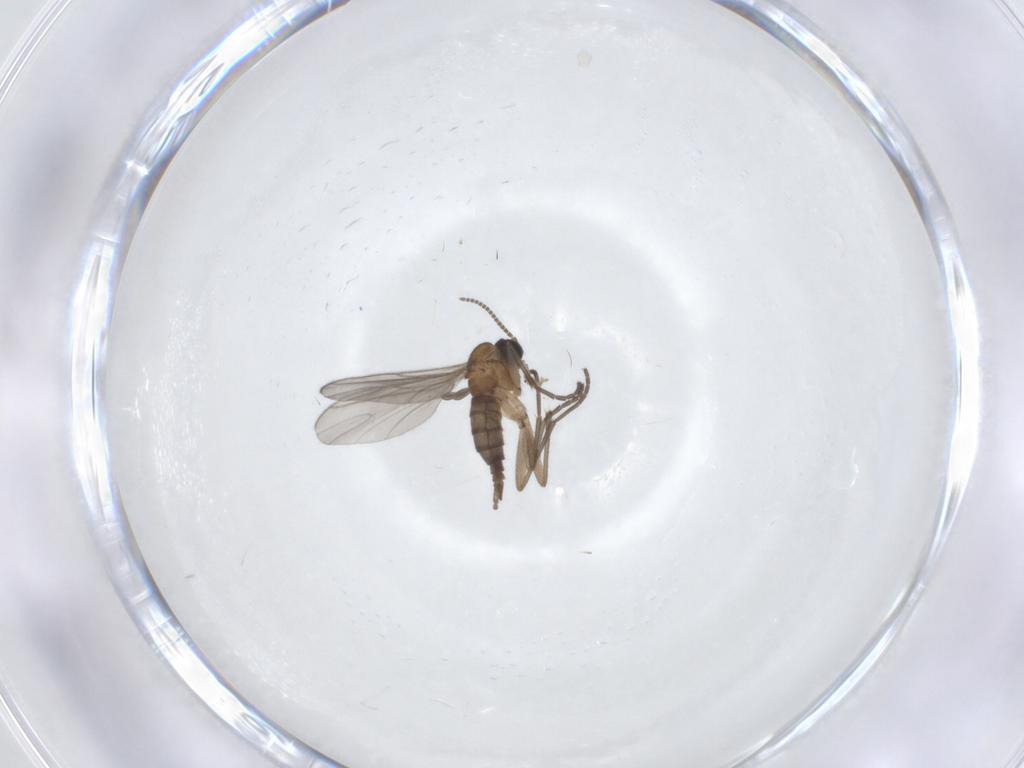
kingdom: Animalia
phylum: Arthropoda
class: Insecta
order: Diptera
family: Sciaridae
